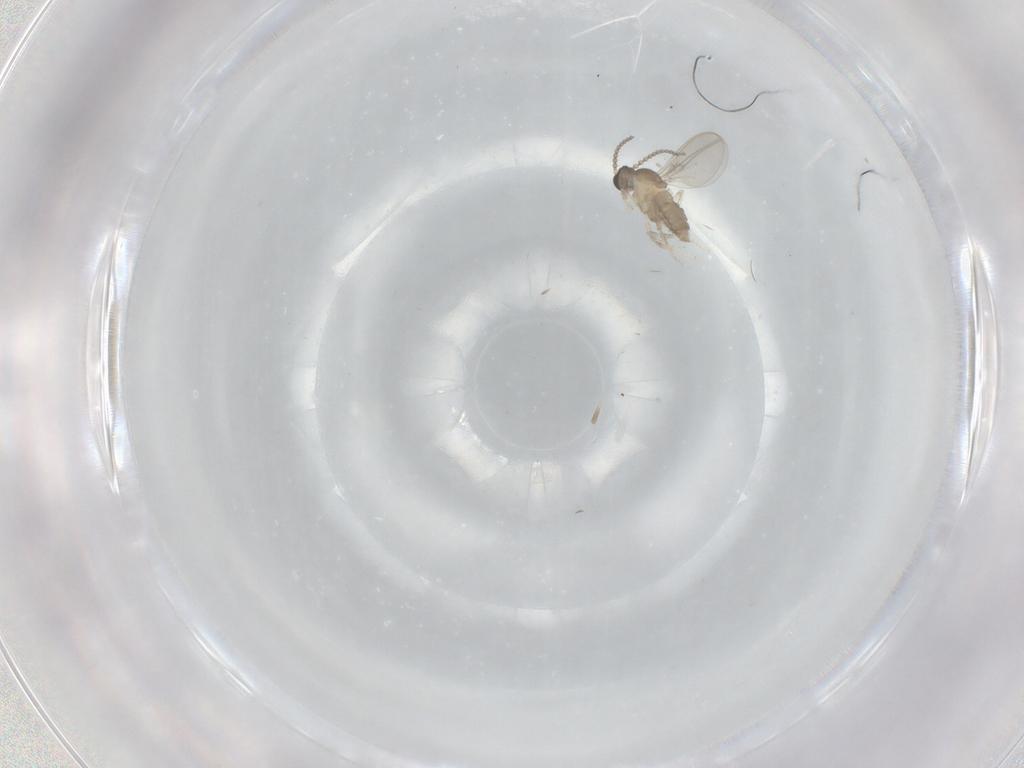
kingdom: Animalia
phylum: Arthropoda
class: Insecta
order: Diptera
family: Cecidomyiidae
